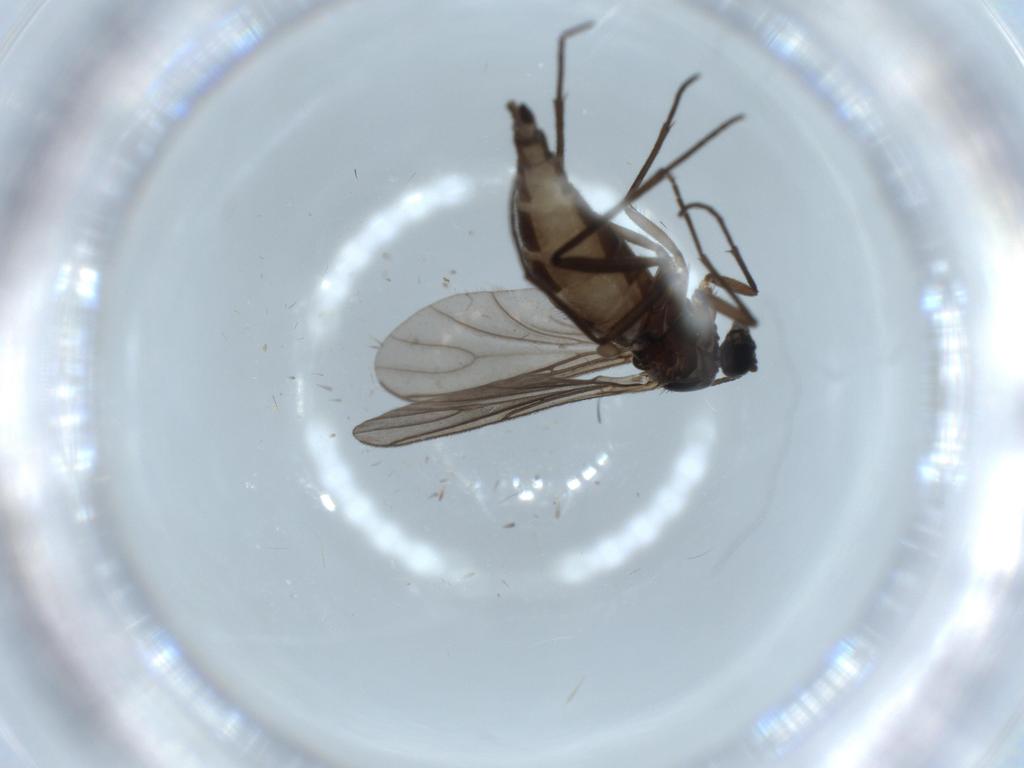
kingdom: Animalia
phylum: Arthropoda
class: Insecta
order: Diptera
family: Sciaridae
